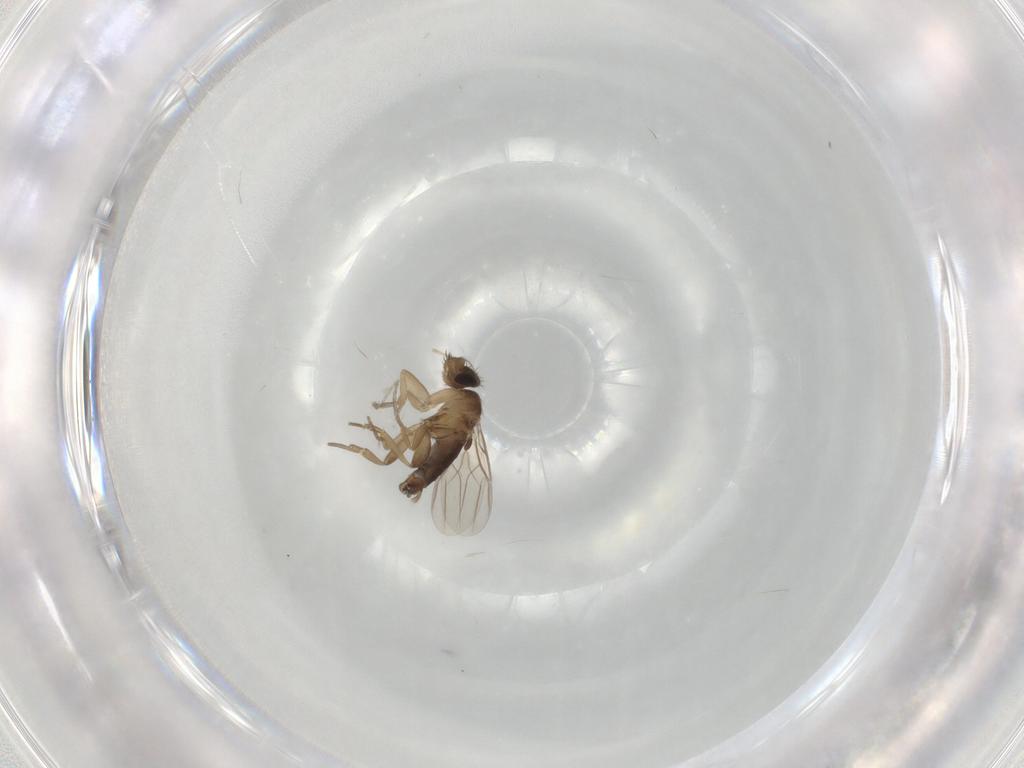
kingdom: Animalia
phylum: Arthropoda
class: Insecta
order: Diptera
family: Phoridae
